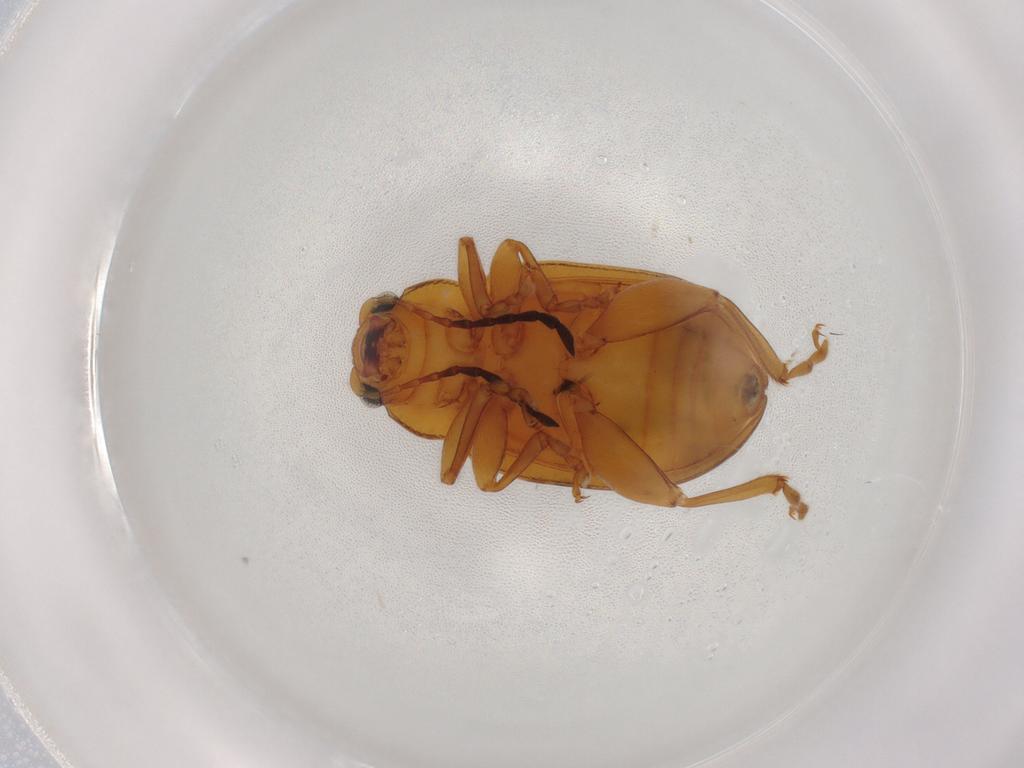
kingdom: Animalia
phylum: Arthropoda
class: Insecta
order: Coleoptera
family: Chrysomelidae
